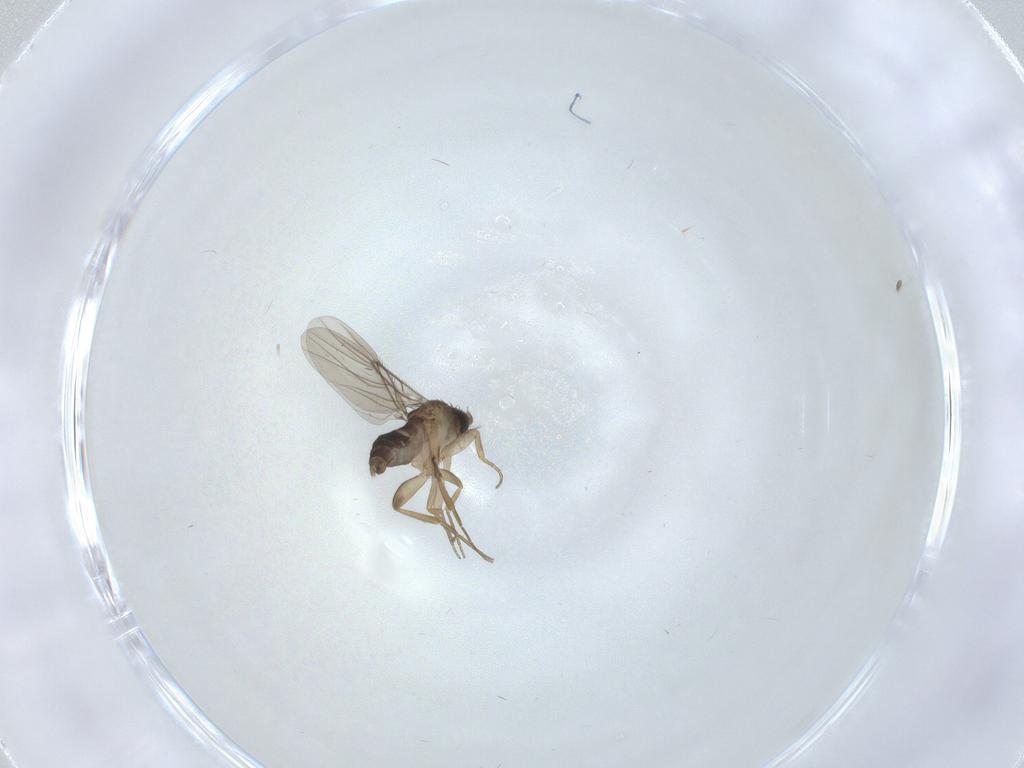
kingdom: Animalia
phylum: Arthropoda
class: Insecta
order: Diptera
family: Phoridae
